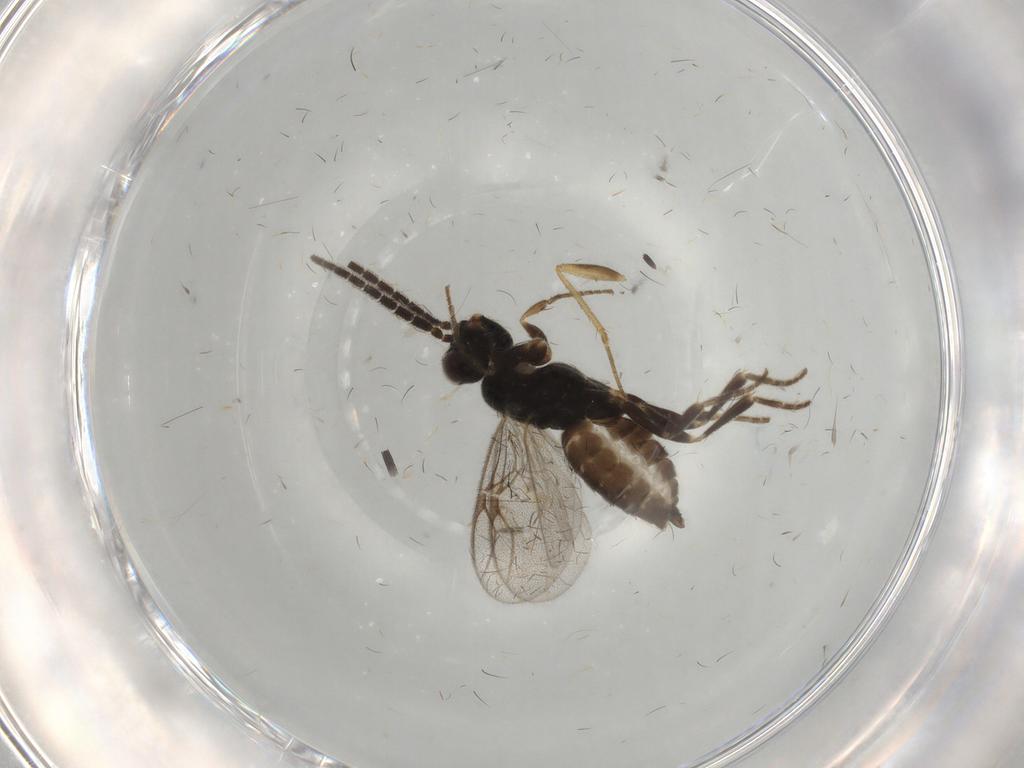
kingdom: Animalia
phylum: Arthropoda
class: Insecta
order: Hymenoptera
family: Dryinidae
